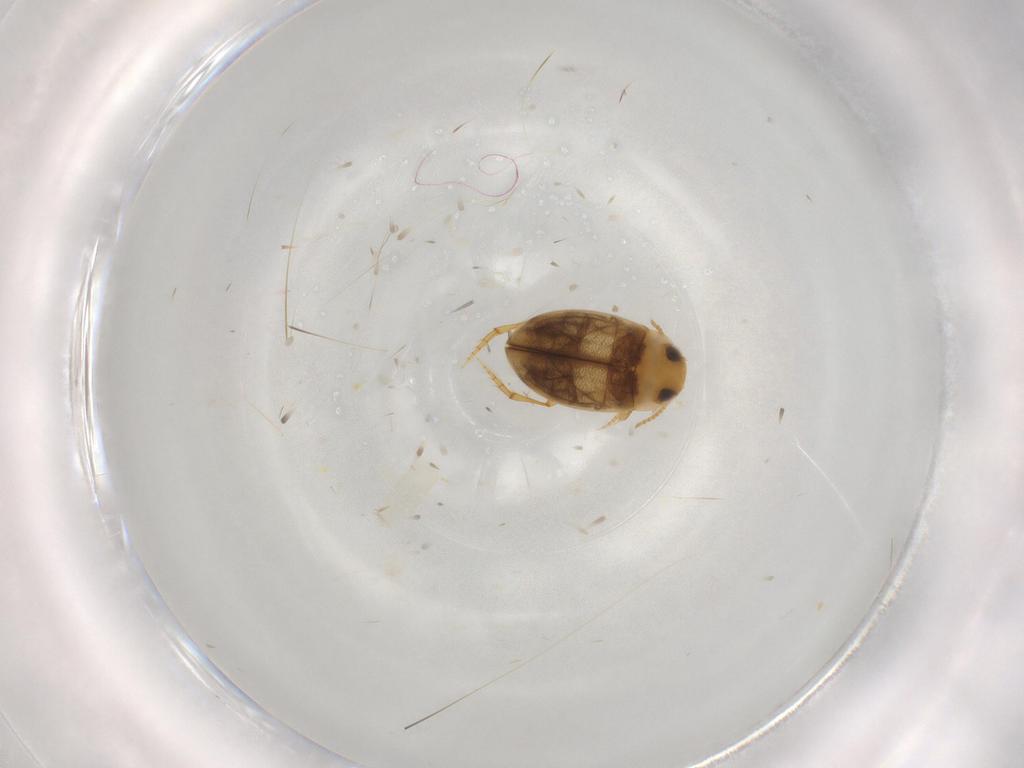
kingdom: Animalia
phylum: Arthropoda
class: Insecta
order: Coleoptera
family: Dytiscidae
